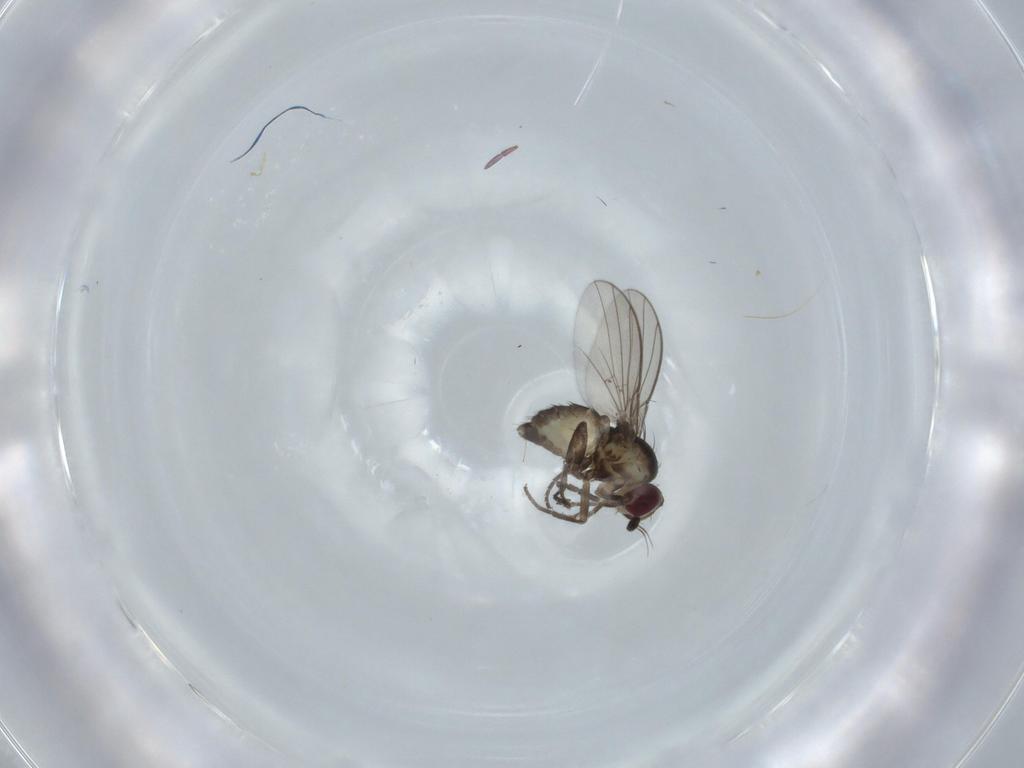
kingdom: Animalia
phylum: Arthropoda
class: Insecta
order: Diptera
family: Agromyzidae
